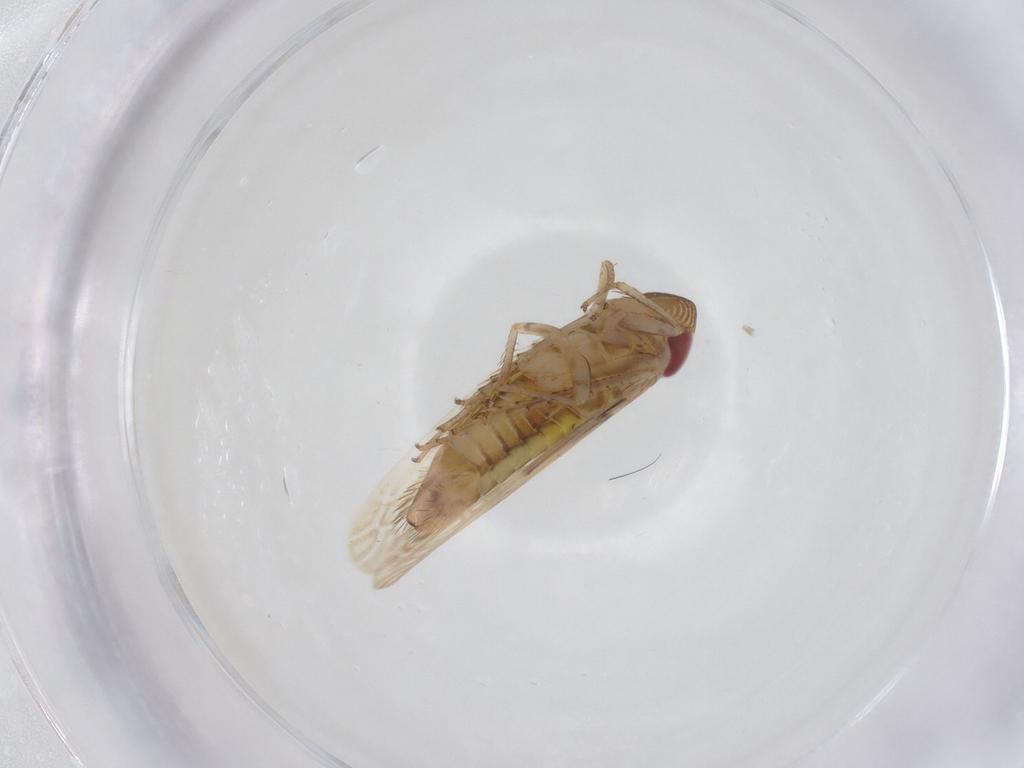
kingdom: Animalia
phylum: Arthropoda
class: Insecta
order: Hemiptera
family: Cicadellidae
